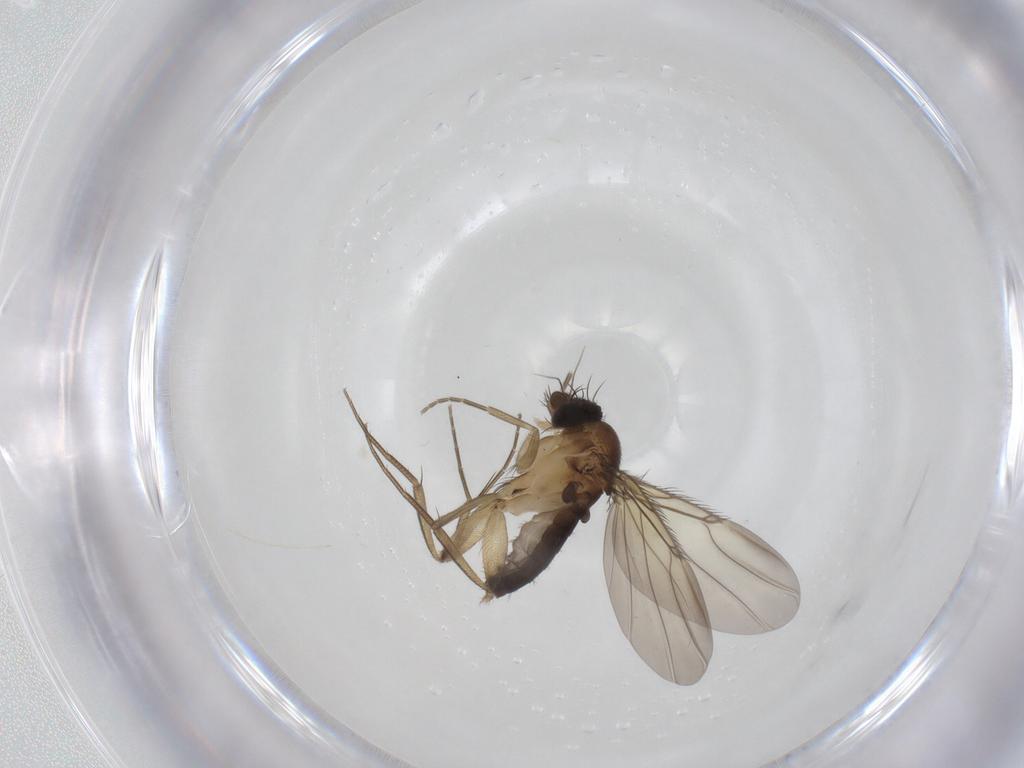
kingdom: Animalia
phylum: Arthropoda
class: Insecta
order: Diptera
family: Phoridae
